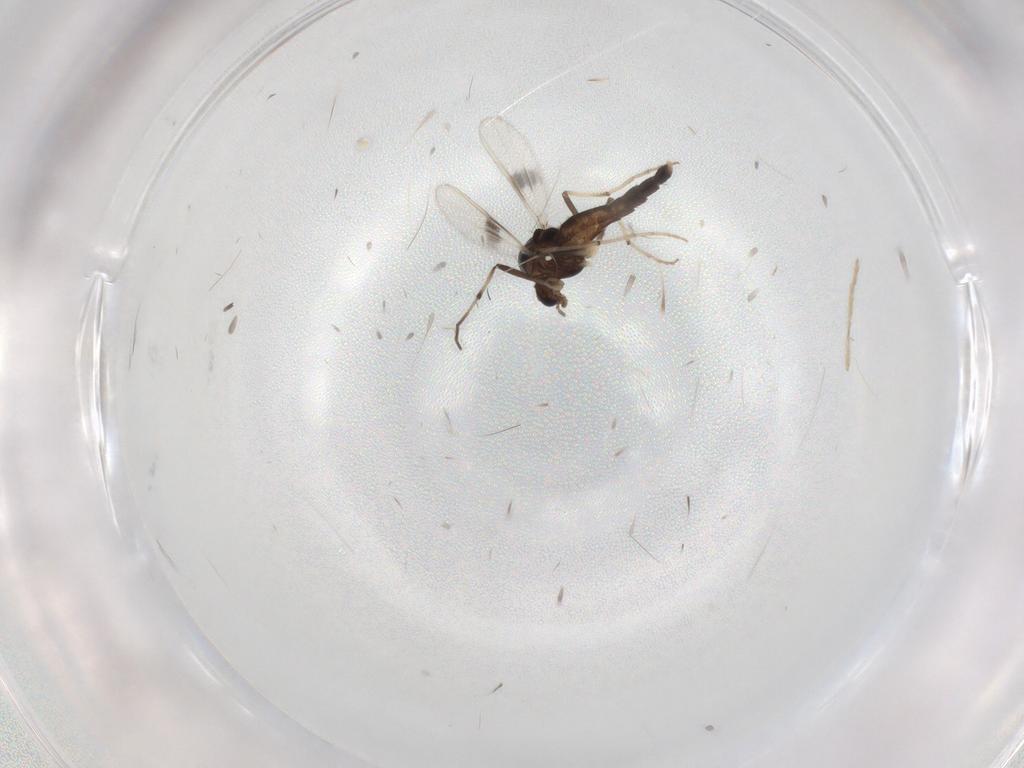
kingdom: Animalia
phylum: Arthropoda
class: Insecta
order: Diptera
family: Chironomidae
